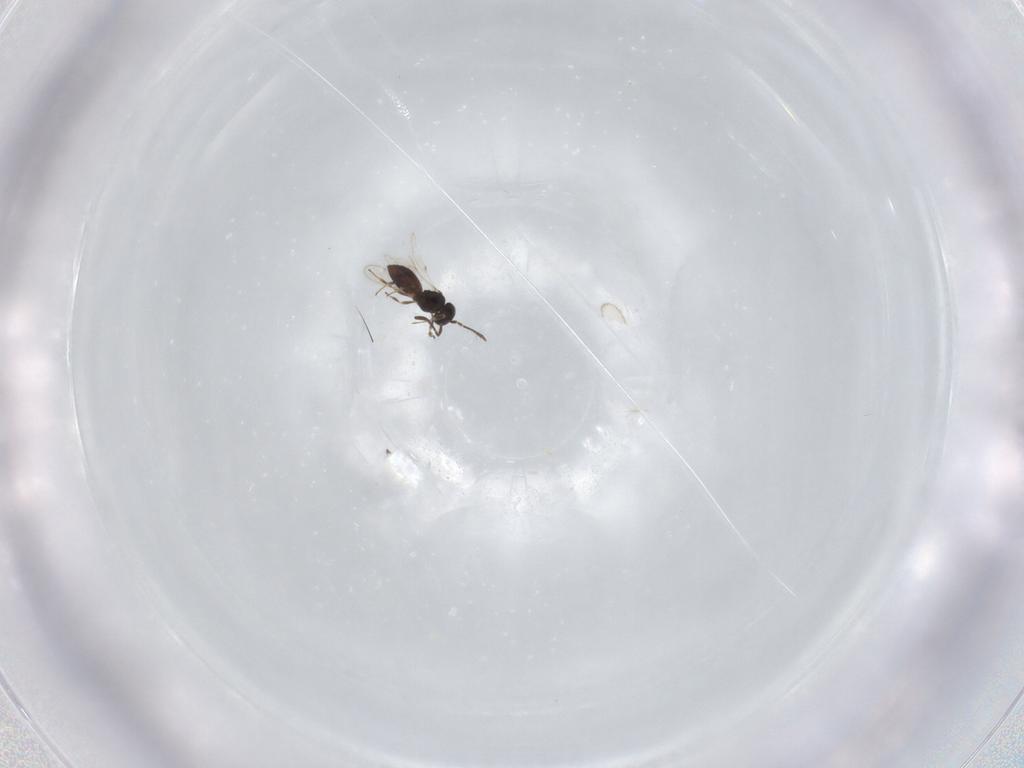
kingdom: Animalia
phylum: Arthropoda
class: Insecta
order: Hymenoptera
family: Scelionidae
